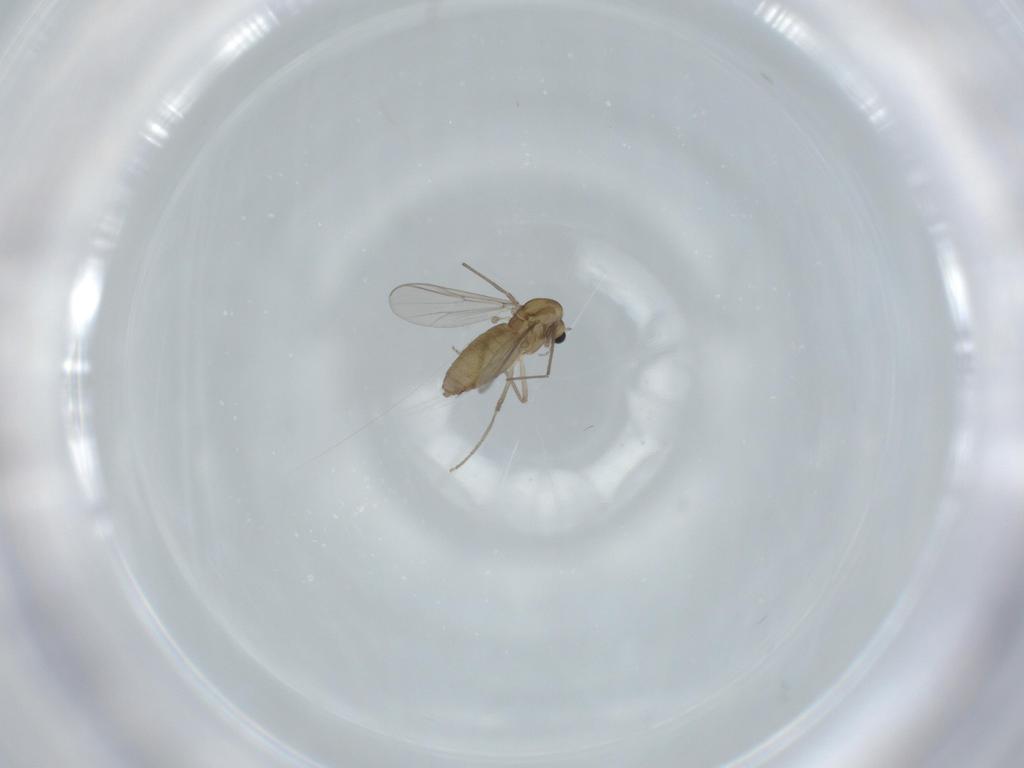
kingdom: Animalia
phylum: Arthropoda
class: Insecta
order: Diptera
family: Chironomidae
